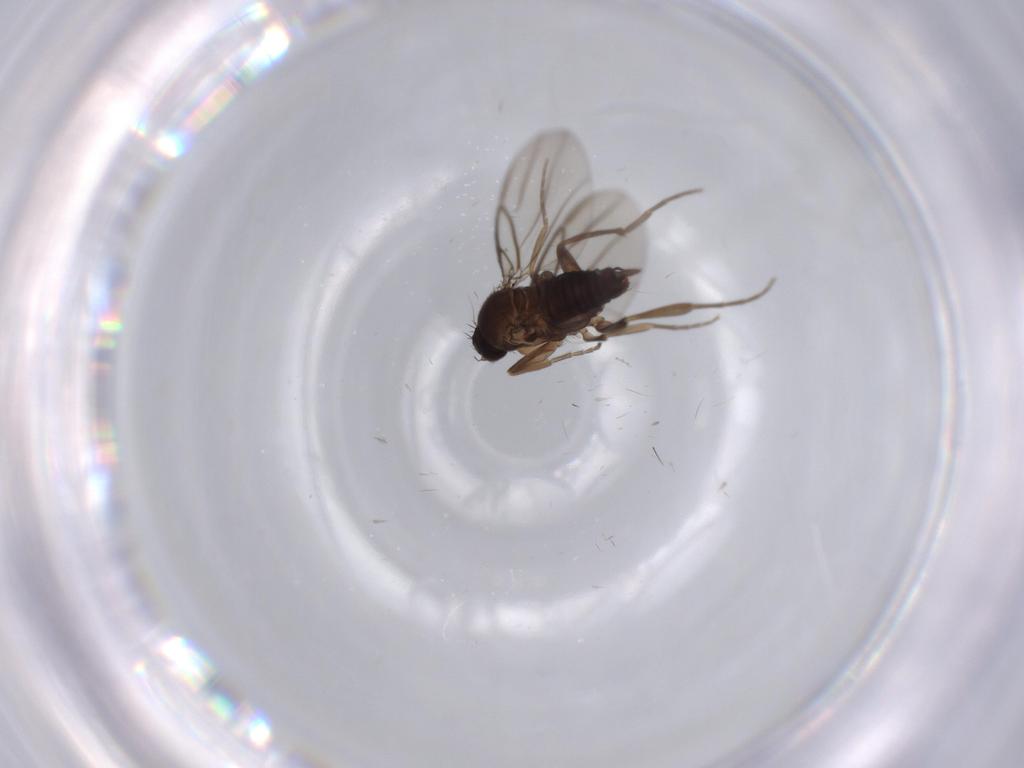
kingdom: Animalia
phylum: Arthropoda
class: Insecta
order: Diptera
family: Cecidomyiidae
